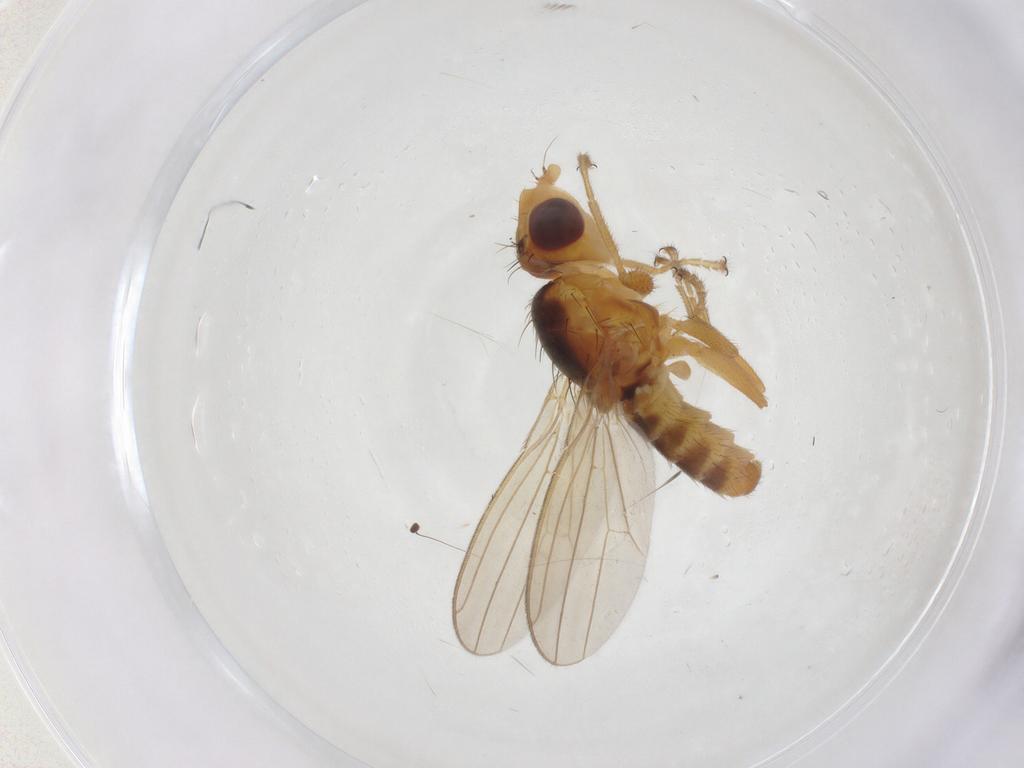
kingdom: Animalia
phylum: Arthropoda
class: Insecta
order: Diptera
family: Canacidae
